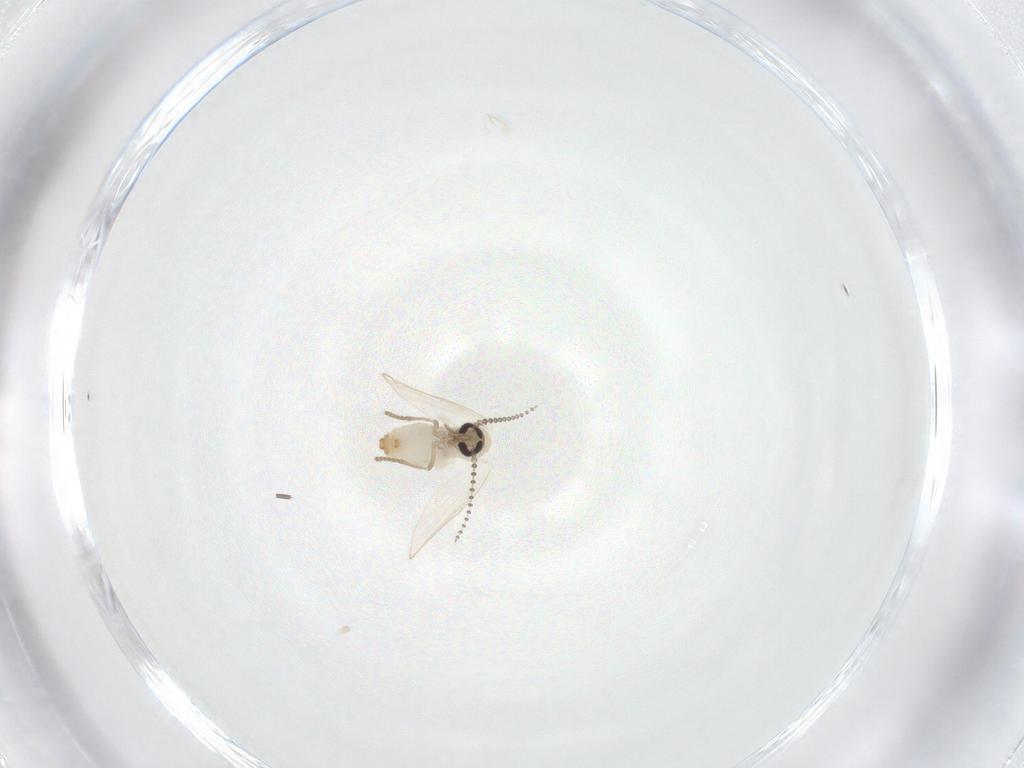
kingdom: Animalia
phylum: Arthropoda
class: Insecta
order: Diptera
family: Psychodidae
